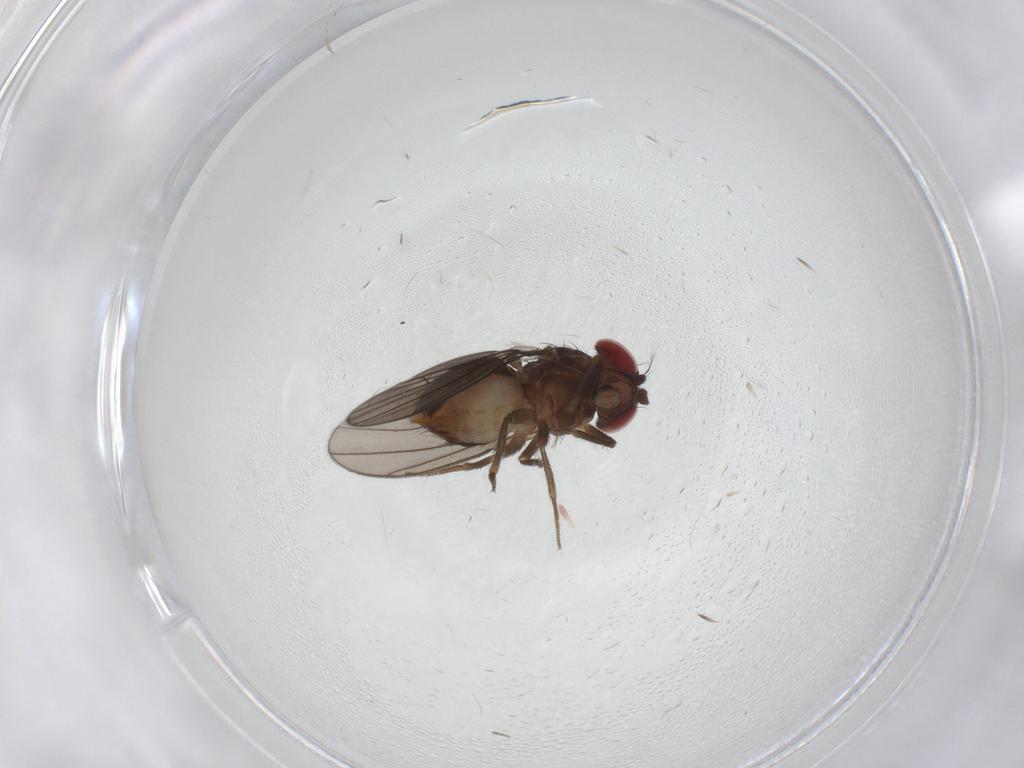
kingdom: Animalia
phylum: Arthropoda
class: Insecta
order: Diptera
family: Drosophilidae
